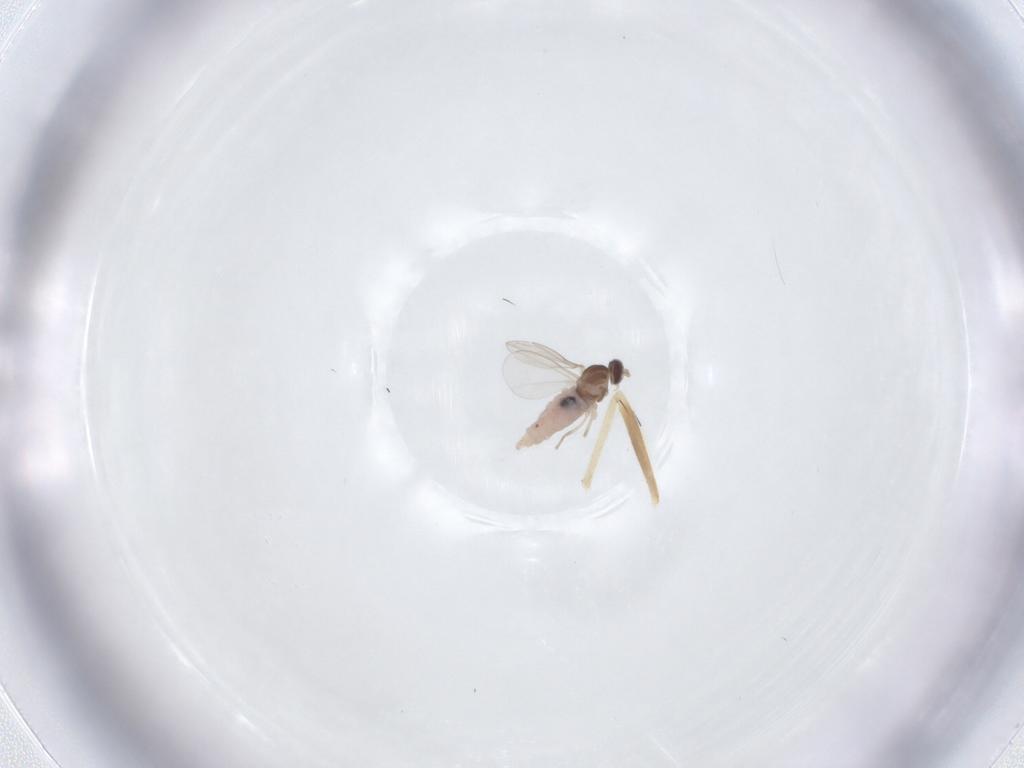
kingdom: Animalia
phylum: Arthropoda
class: Insecta
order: Diptera
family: Cecidomyiidae
